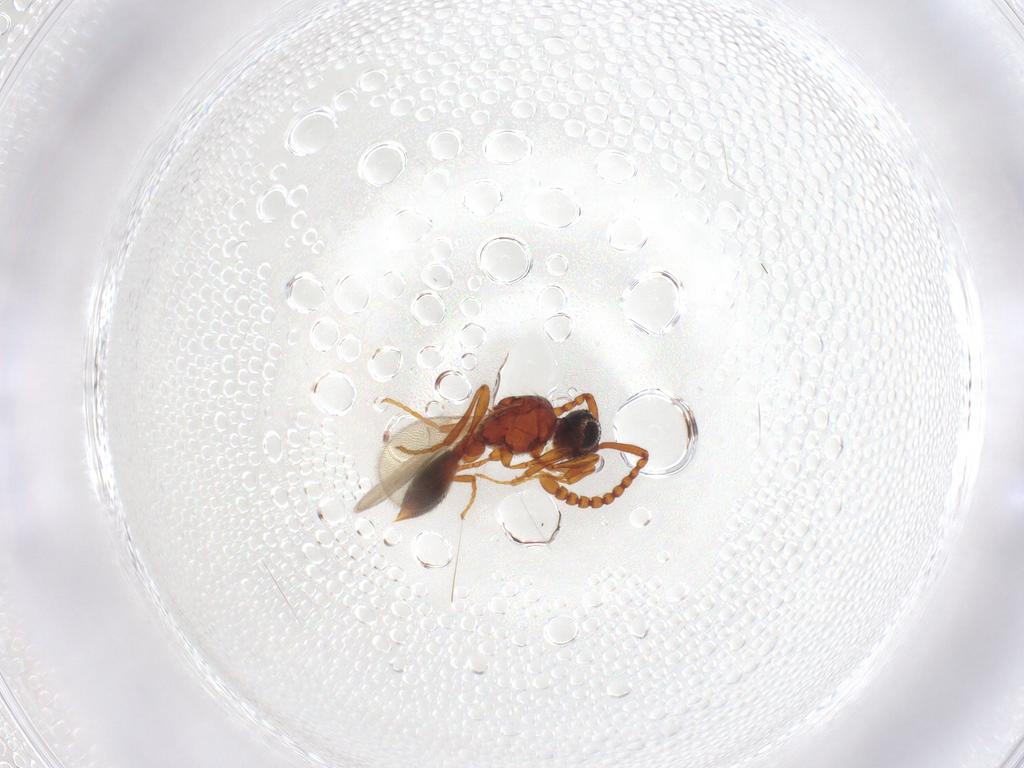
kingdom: Animalia
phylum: Arthropoda
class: Insecta
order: Hymenoptera
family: Diapriidae
